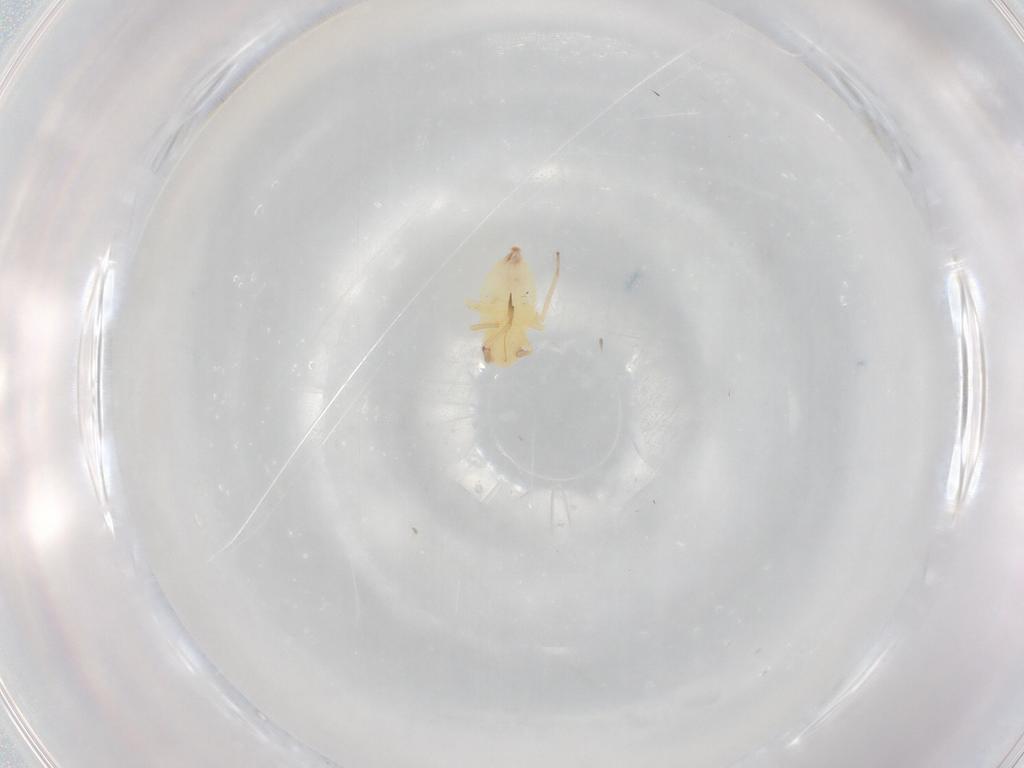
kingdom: Animalia
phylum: Arthropoda
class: Insecta
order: Hemiptera
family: Miridae
